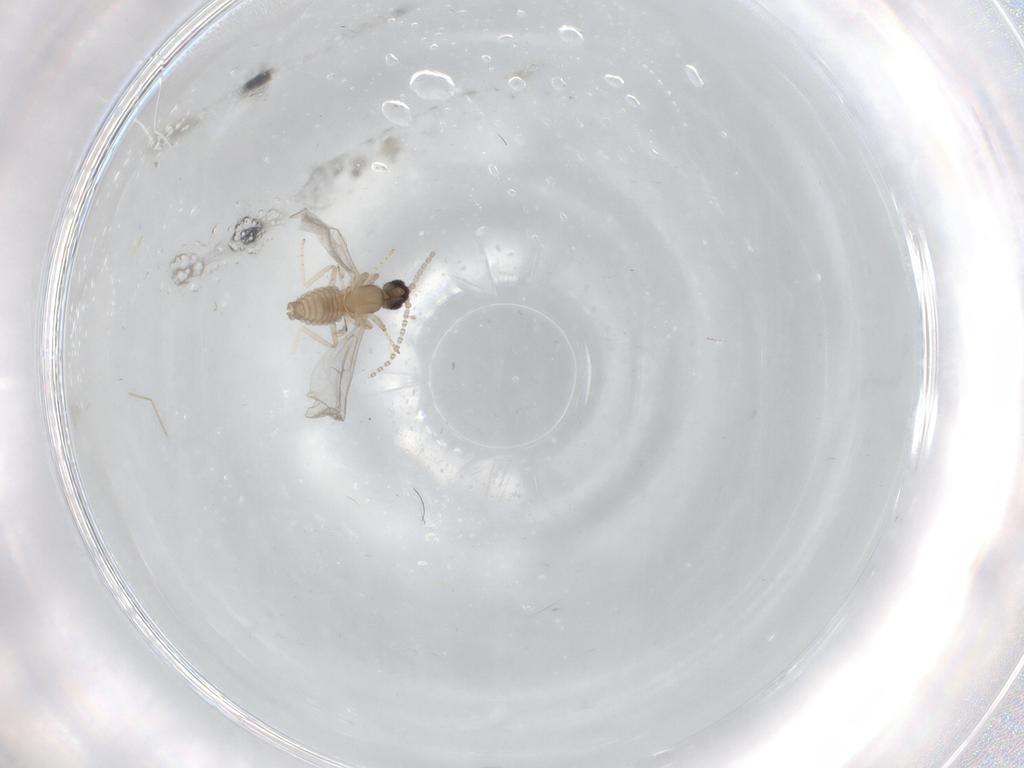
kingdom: Animalia
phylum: Arthropoda
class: Insecta
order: Diptera
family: Cecidomyiidae
